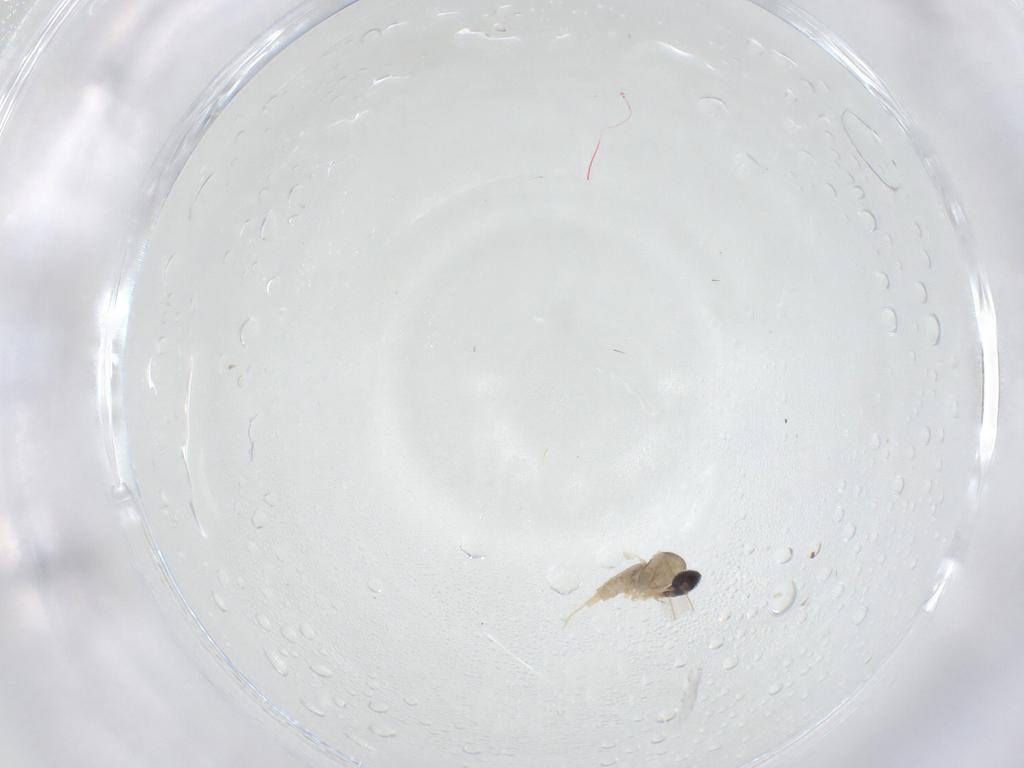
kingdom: Animalia
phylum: Arthropoda
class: Insecta
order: Diptera
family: Cecidomyiidae
